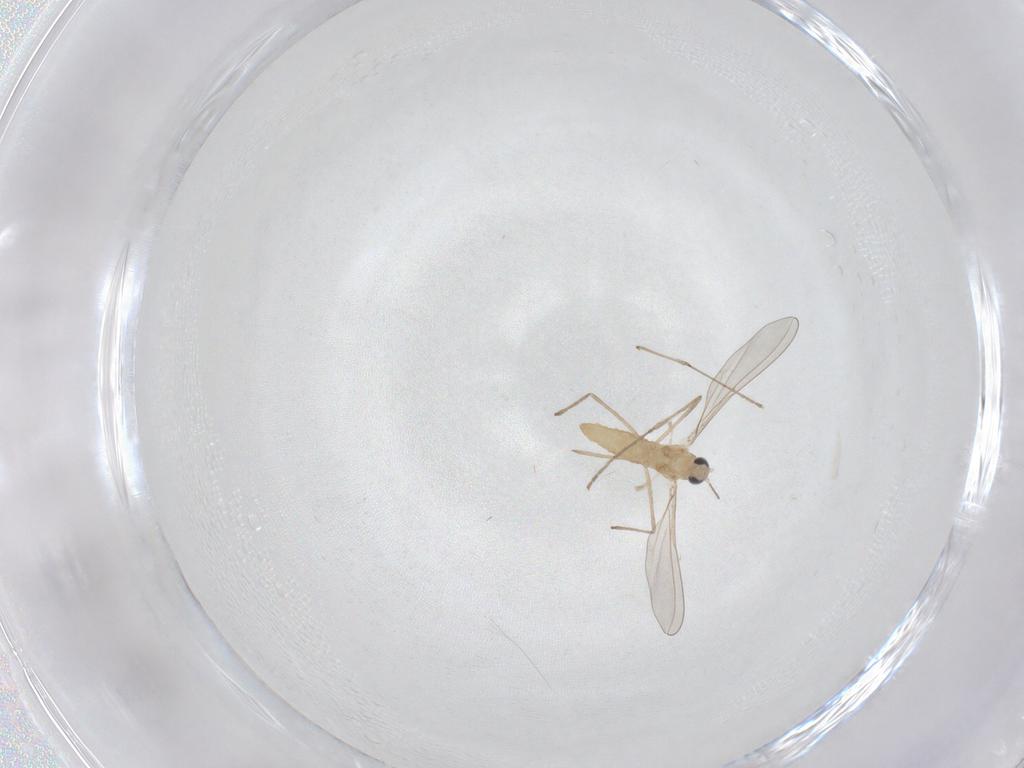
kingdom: Animalia
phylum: Arthropoda
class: Insecta
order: Diptera
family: Cecidomyiidae
